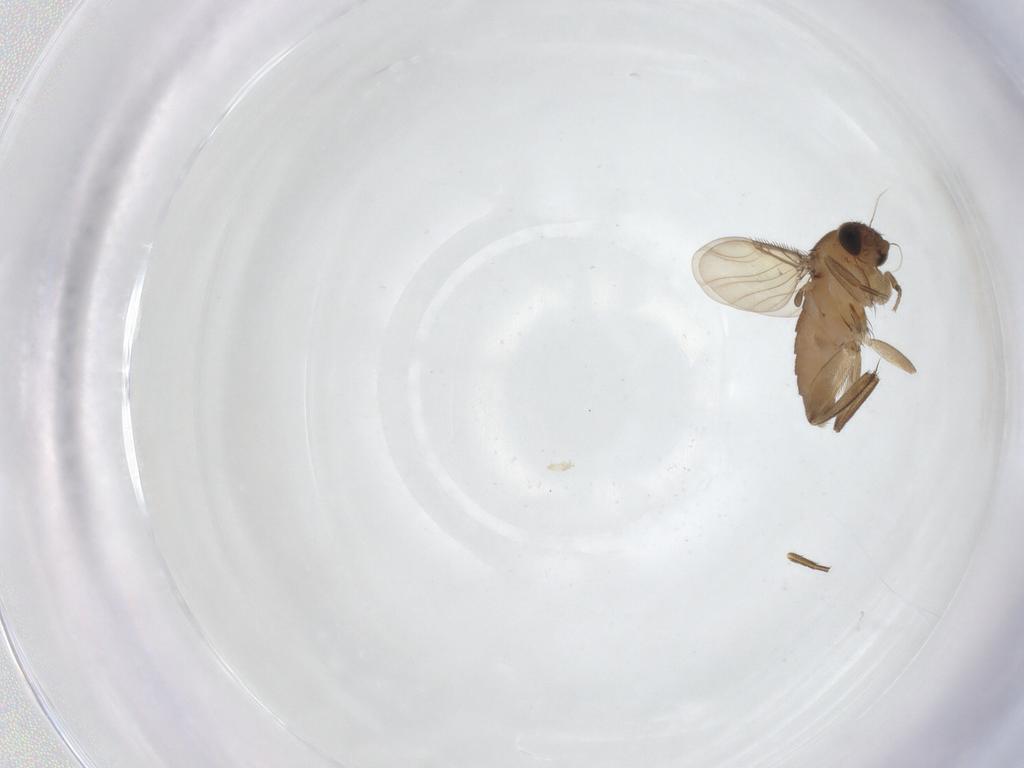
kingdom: Animalia
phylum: Arthropoda
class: Insecta
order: Diptera
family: Phoridae
